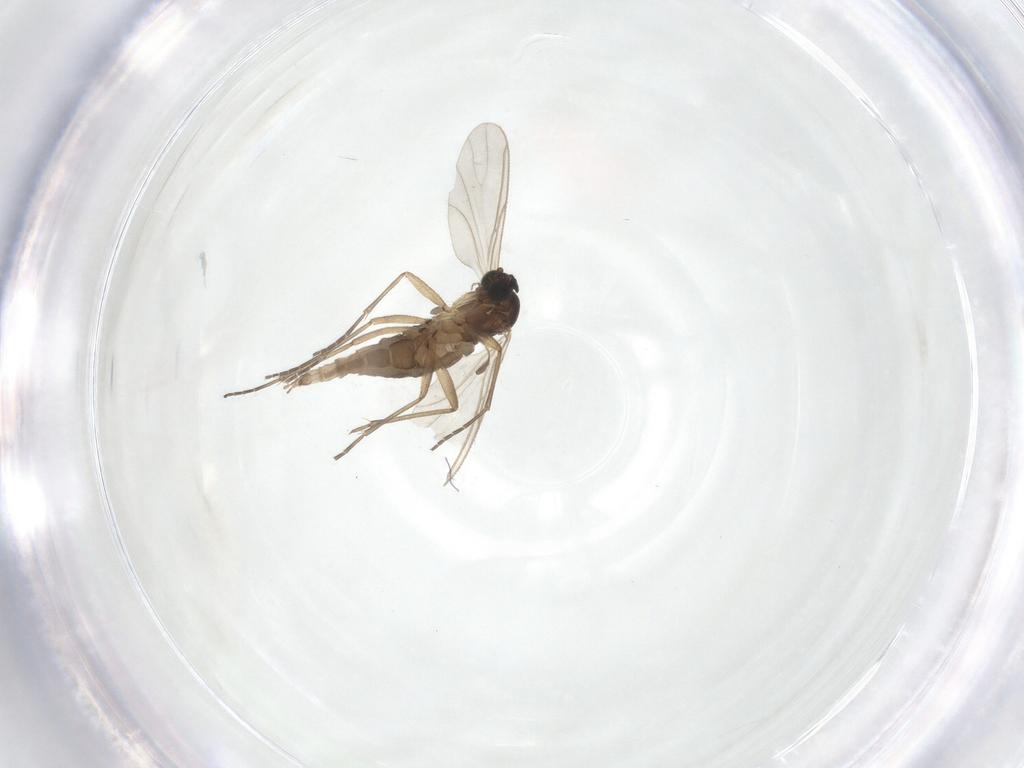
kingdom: Animalia
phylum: Arthropoda
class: Insecta
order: Diptera
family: Sciaridae
